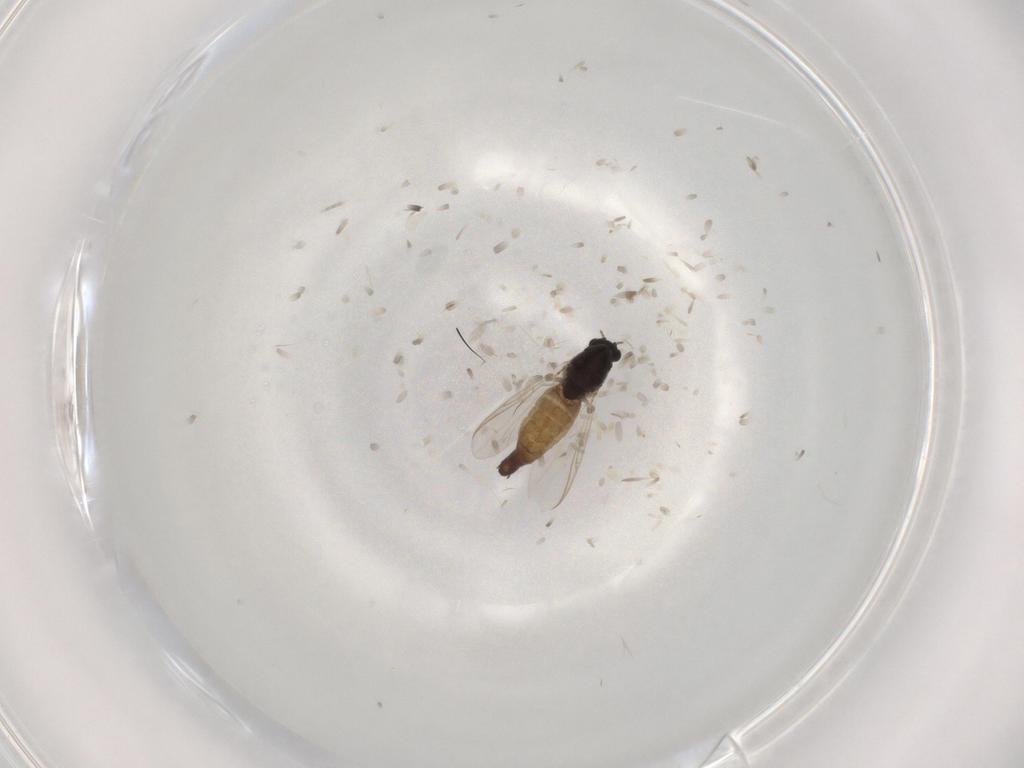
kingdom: Animalia
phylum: Arthropoda
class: Insecta
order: Diptera
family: Chironomidae
